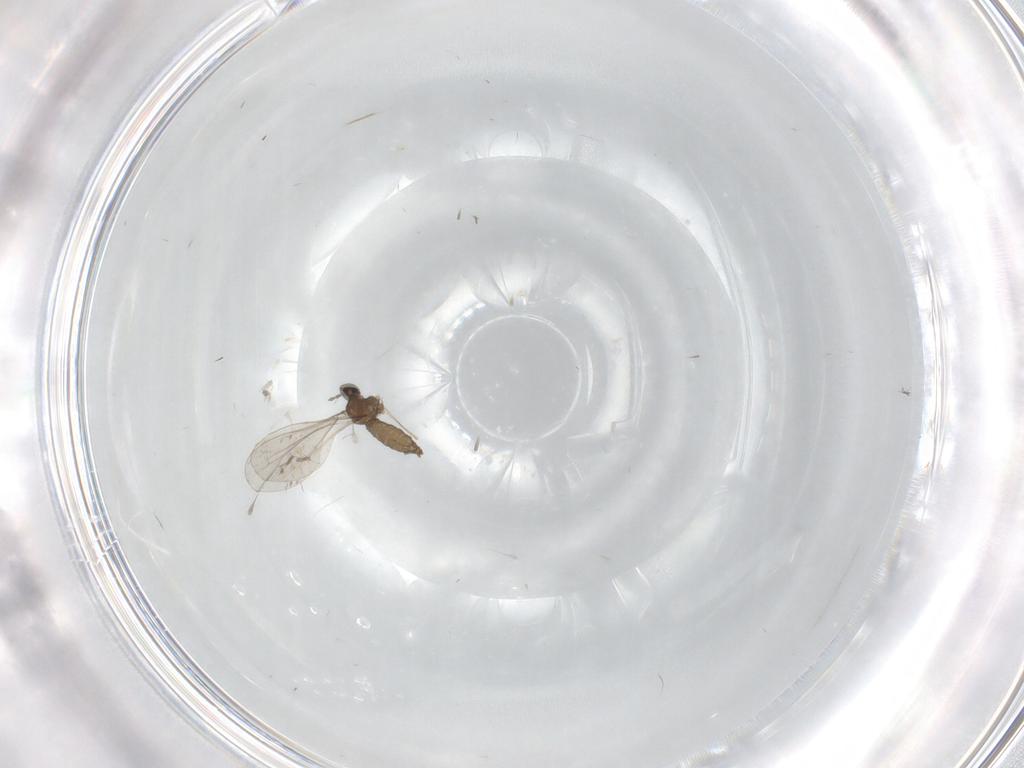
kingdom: Animalia
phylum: Arthropoda
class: Insecta
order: Diptera
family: Cecidomyiidae
